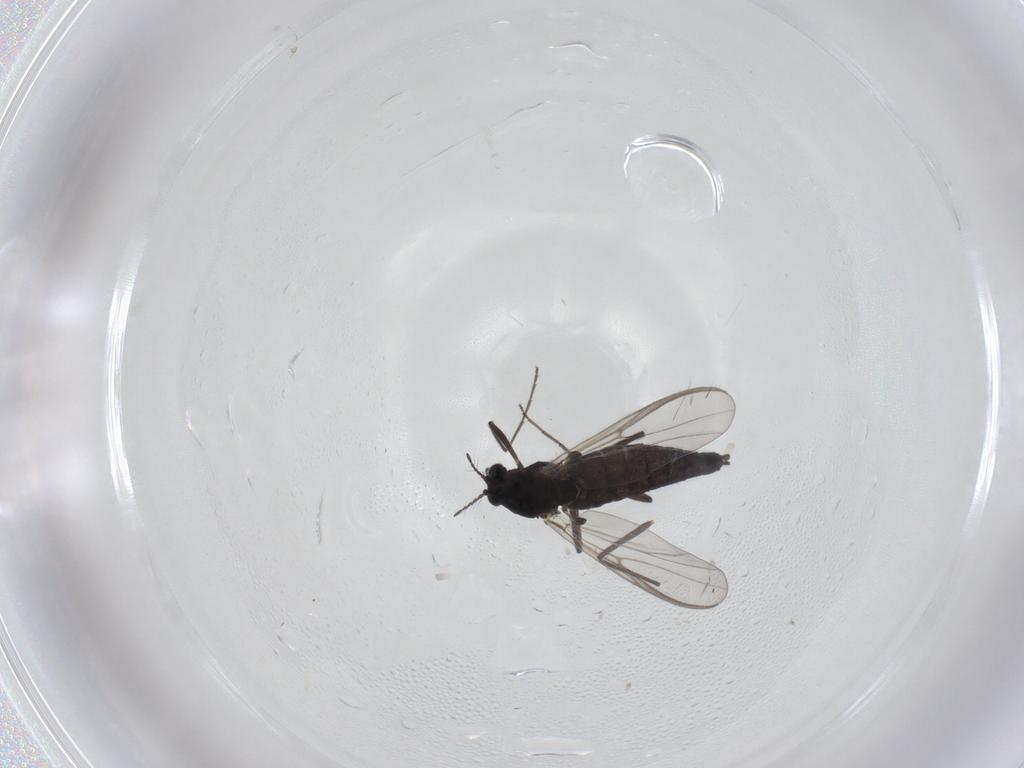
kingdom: Animalia
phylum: Arthropoda
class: Insecta
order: Diptera
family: Chironomidae
